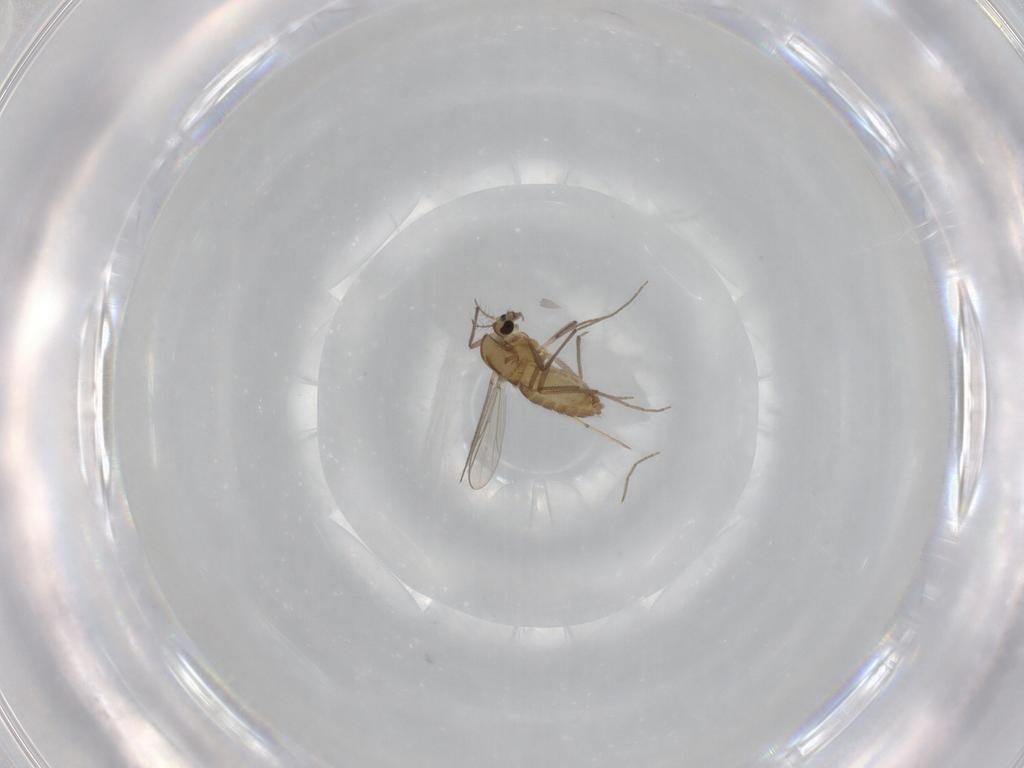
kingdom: Animalia
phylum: Arthropoda
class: Insecta
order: Diptera
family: Chironomidae
